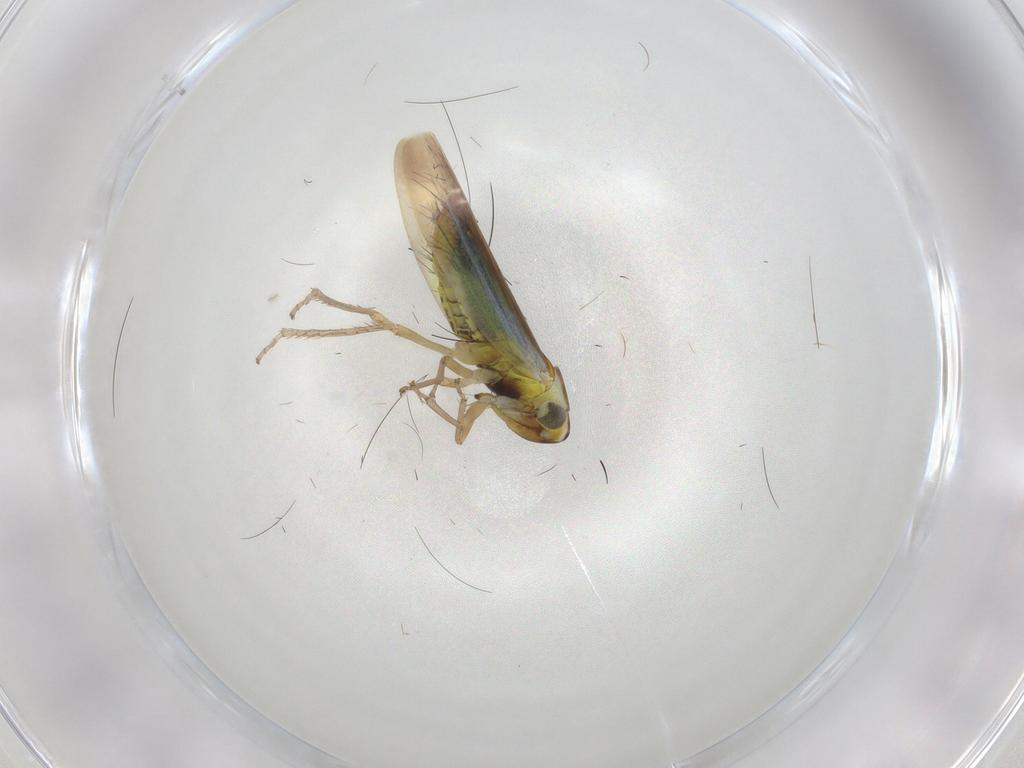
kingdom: Animalia
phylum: Arthropoda
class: Insecta
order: Hemiptera
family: Cicadellidae
